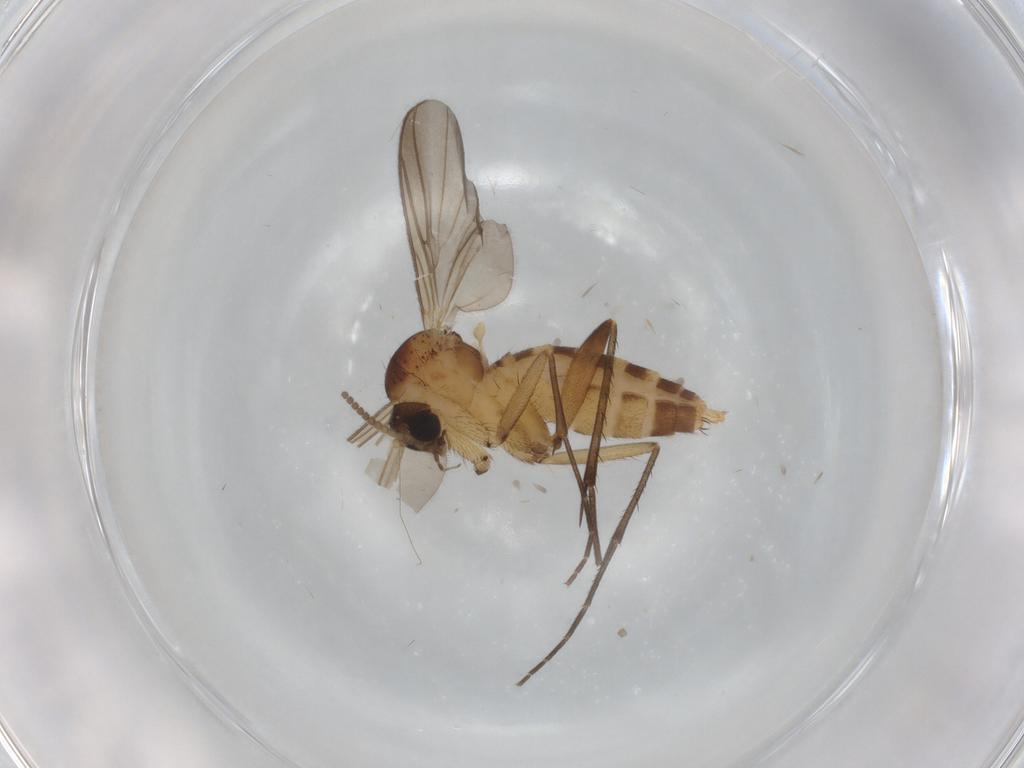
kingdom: Animalia
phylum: Arthropoda
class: Insecta
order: Diptera
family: Mycetophilidae
